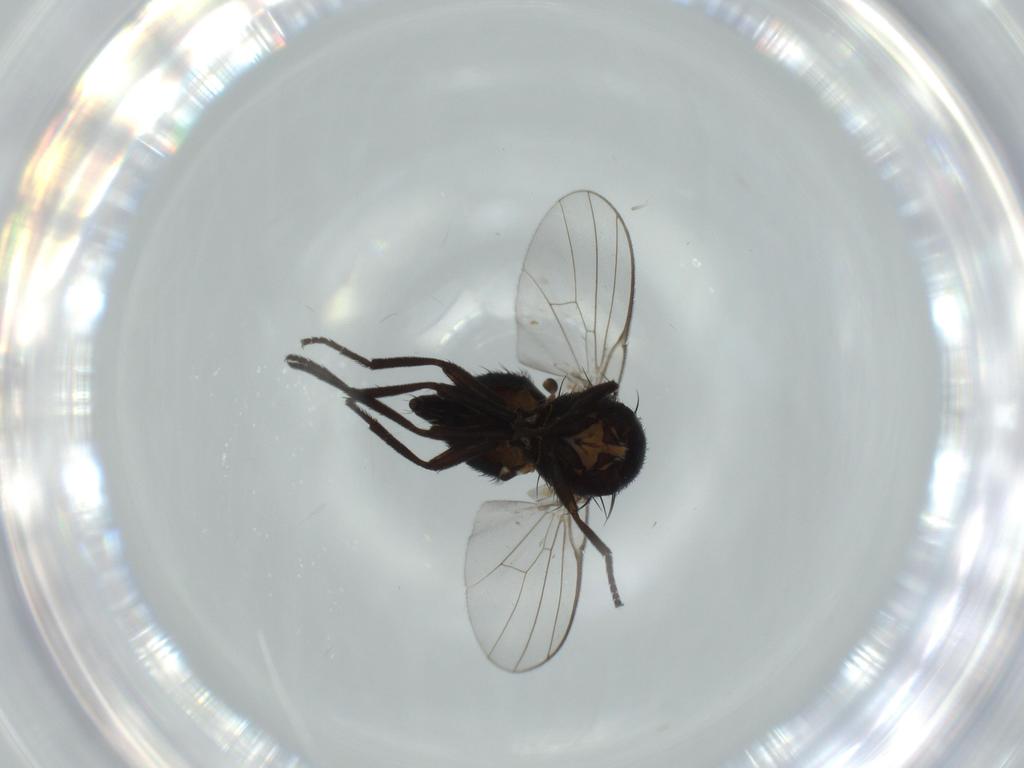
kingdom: Animalia
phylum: Arthropoda
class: Insecta
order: Diptera
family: Agromyzidae
